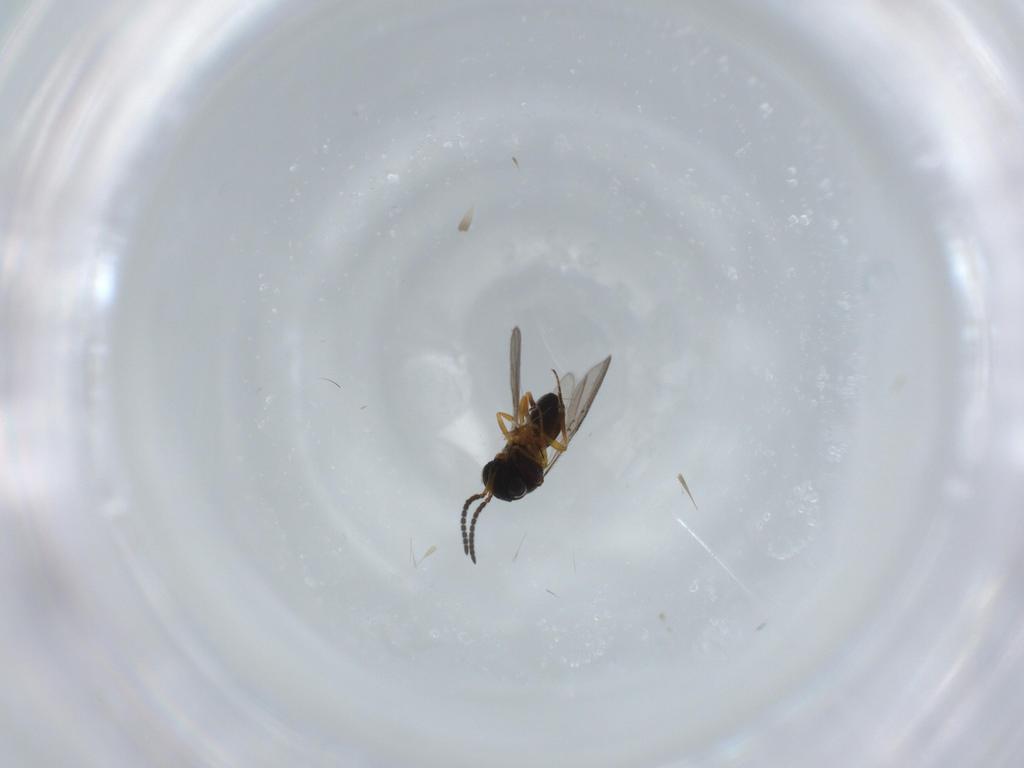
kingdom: Animalia
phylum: Arthropoda
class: Insecta
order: Hymenoptera
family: Scelionidae
